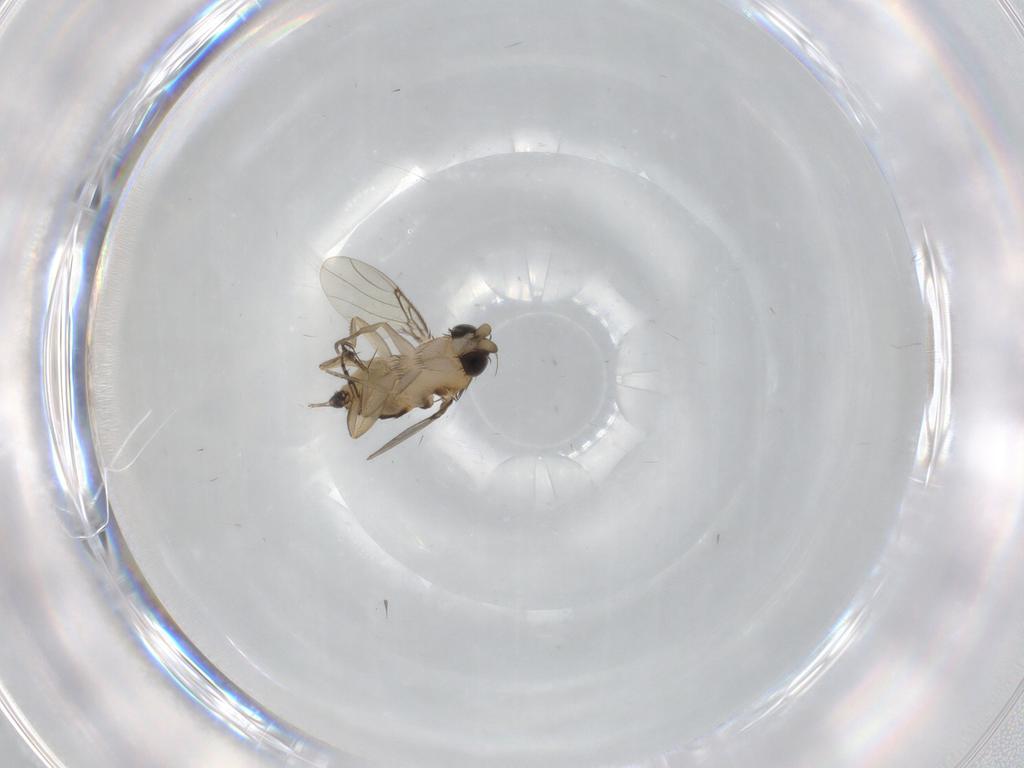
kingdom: Animalia
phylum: Arthropoda
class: Insecta
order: Diptera
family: Phoridae
